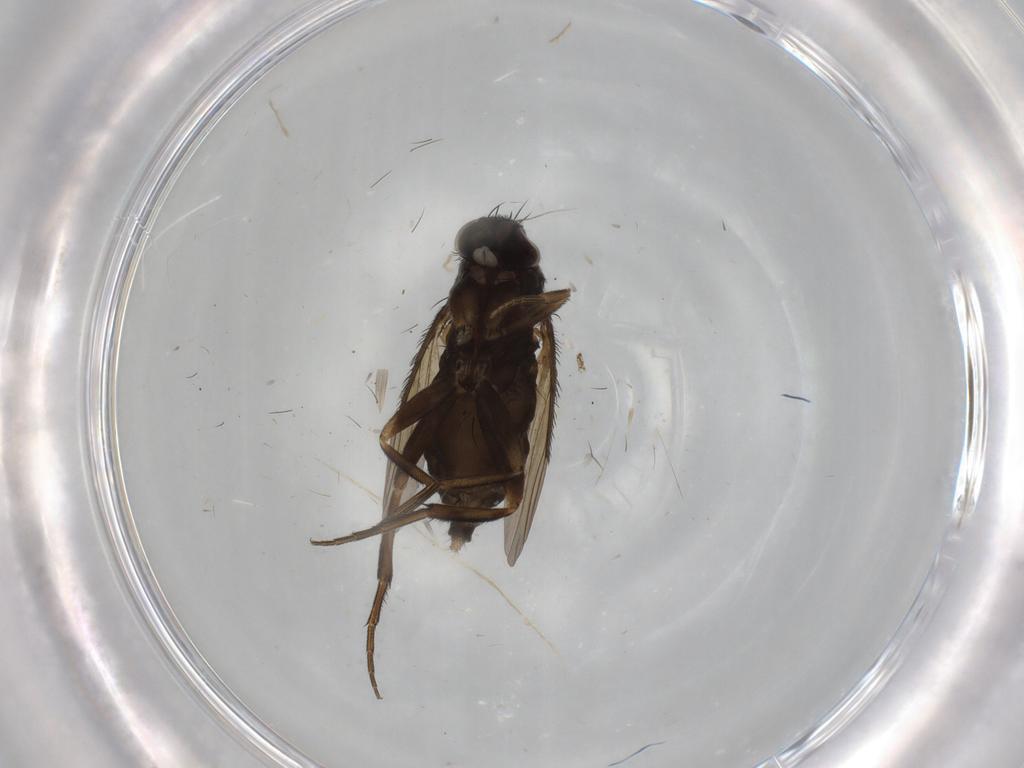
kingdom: Animalia
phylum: Arthropoda
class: Insecta
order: Diptera
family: Phoridae
